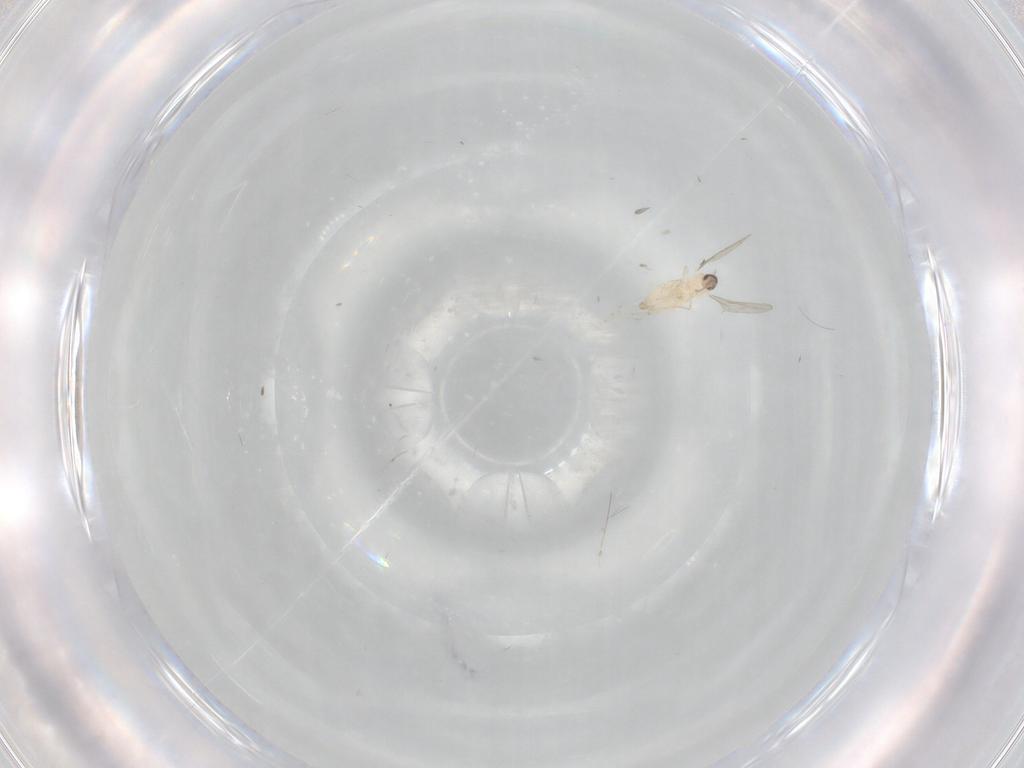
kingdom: Animalia
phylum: Arthropoda
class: Insecta
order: Diptera
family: Cecidomyiidae
